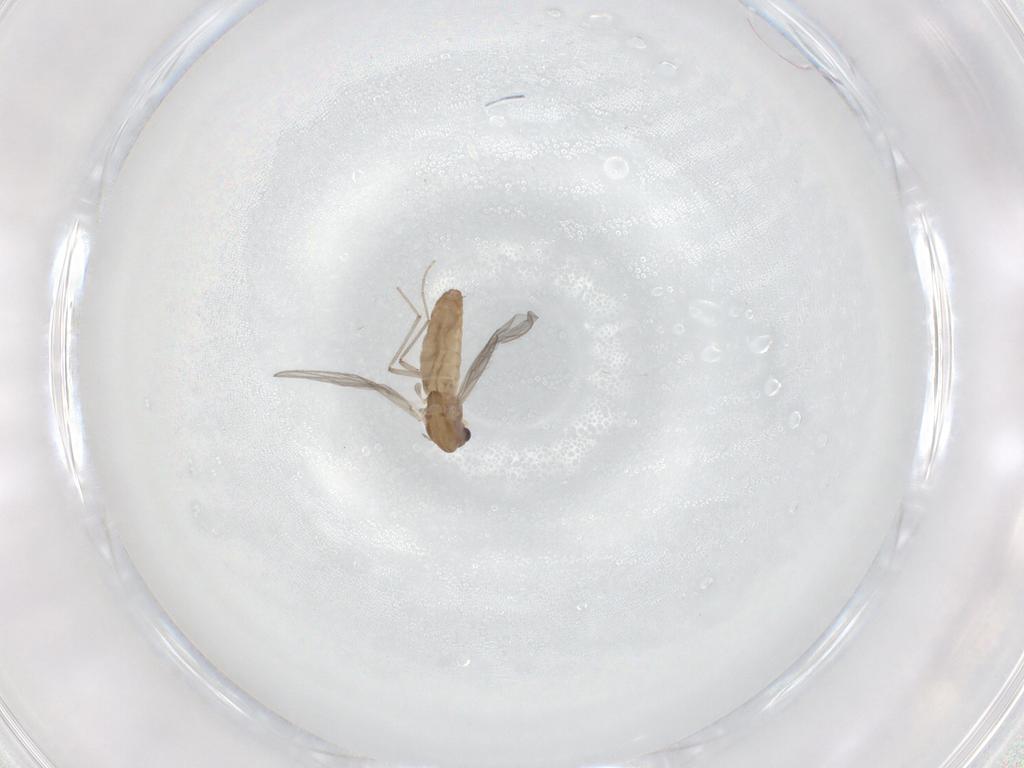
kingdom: Animalia
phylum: Arthropoda
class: Insecta
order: Diptera
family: Chironomidae
